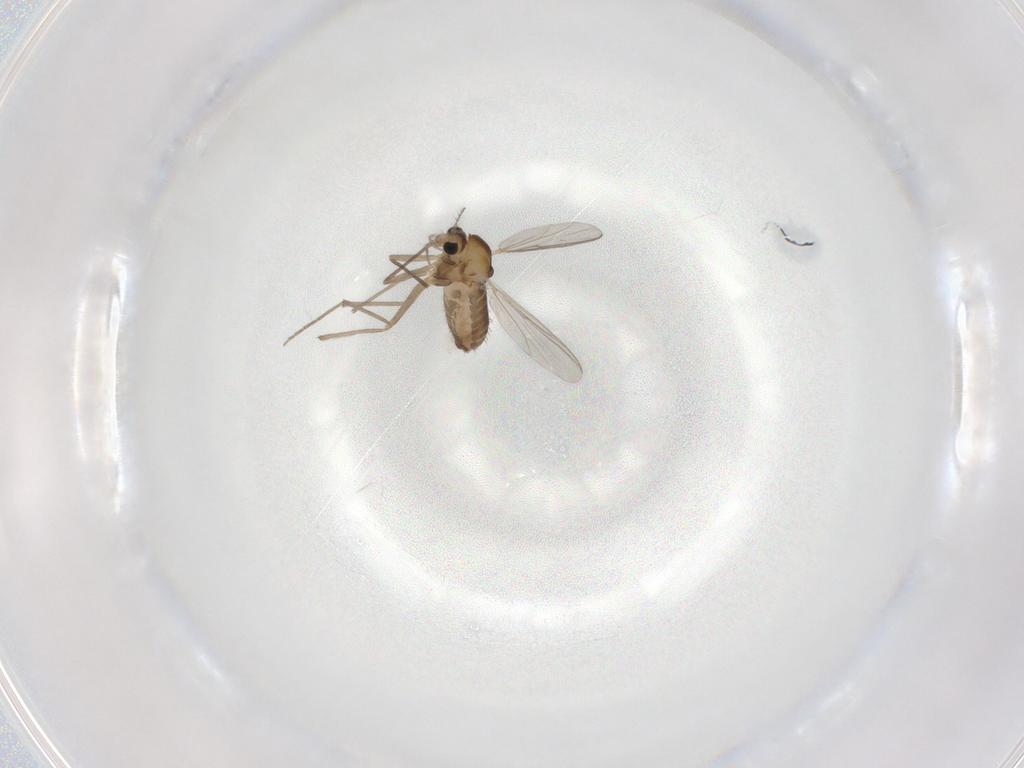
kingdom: Animalia
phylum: Arthropoda
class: Insecta
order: Diptera
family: Chironomidae
